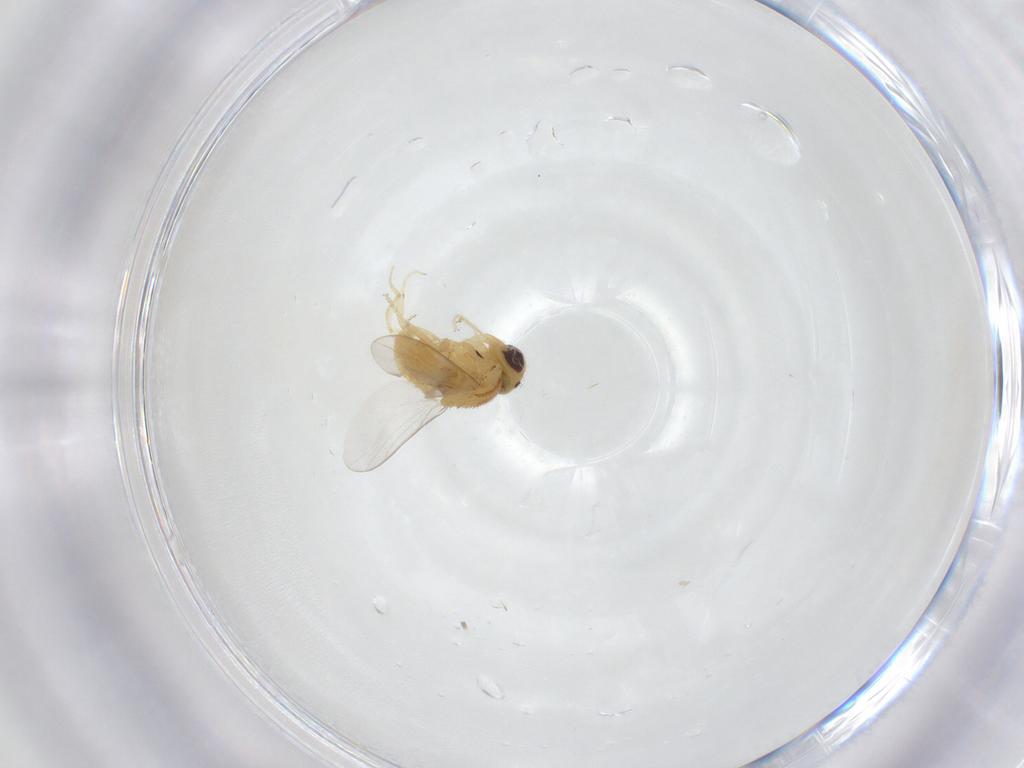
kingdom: Animalia
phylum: Arthropoda
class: Insecta
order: Diptera
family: Chloropidae
